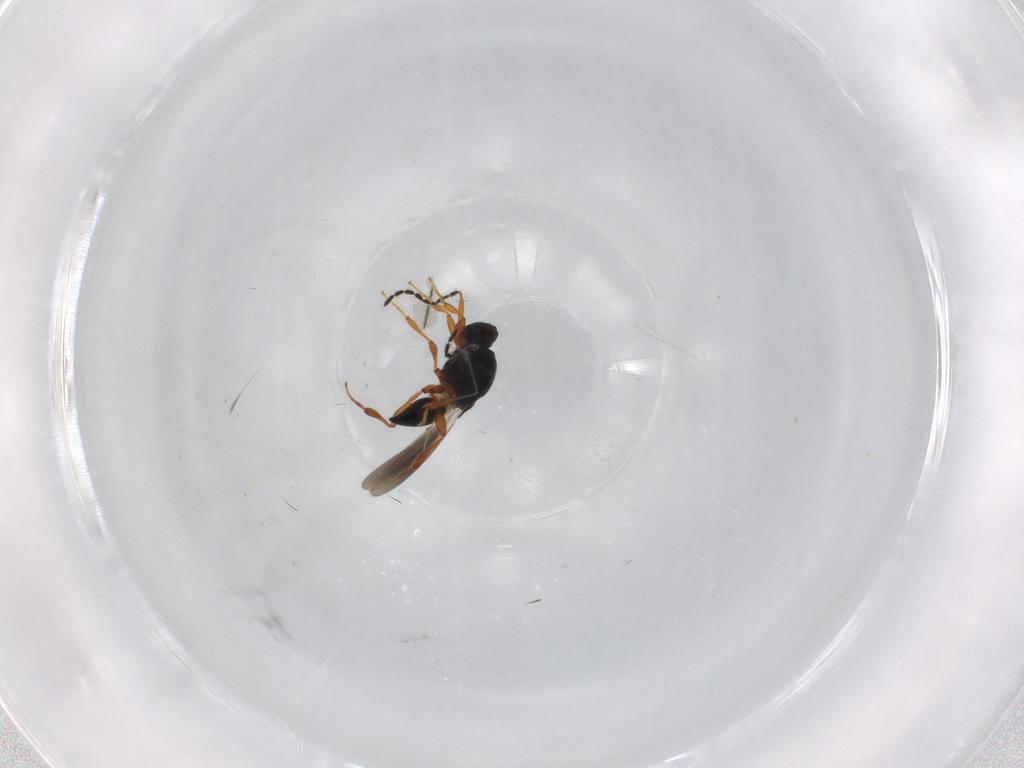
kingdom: Animalia
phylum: Arthropoda
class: Insecta
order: Hymenoptera
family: Platygastridae
